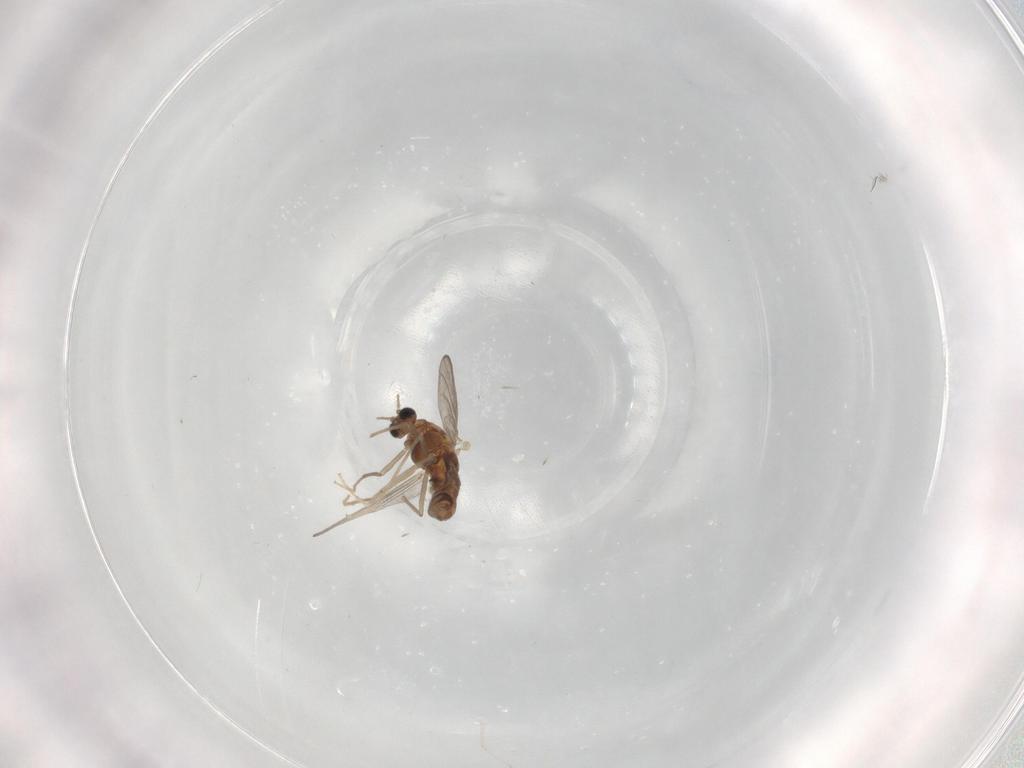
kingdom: Animalia
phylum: Arthropoda
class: Insecta
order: Diptera
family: Chironomidae
